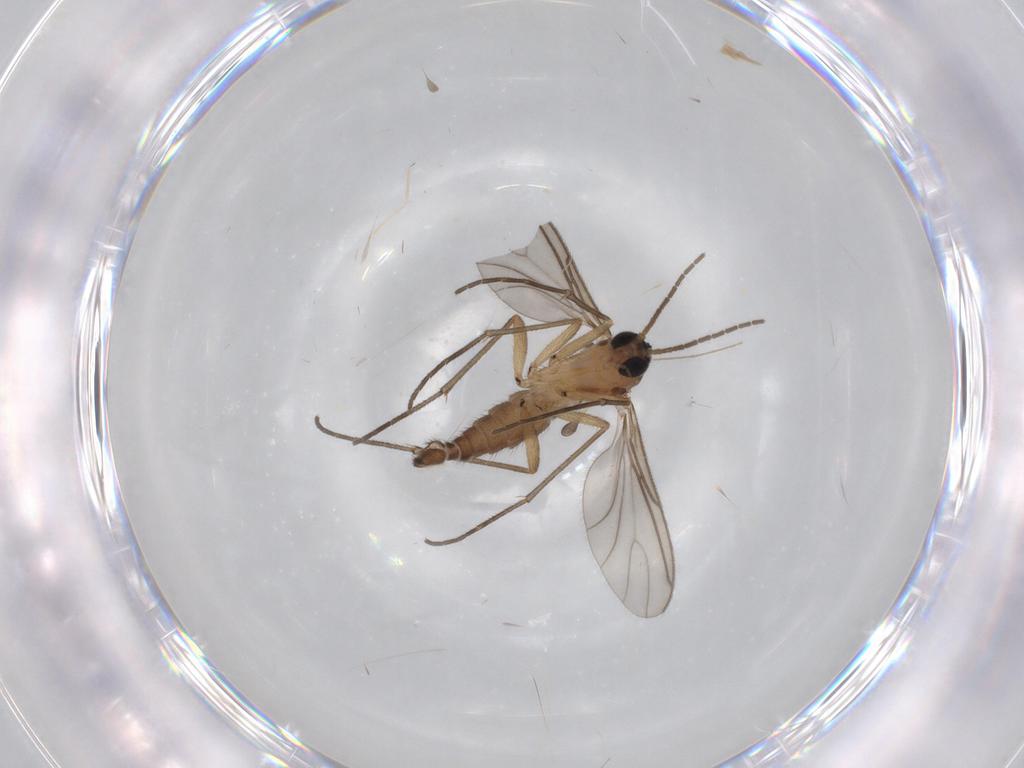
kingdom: Animalia
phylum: Arthropoda
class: Insecta
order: Diptera
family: Sciaridae
